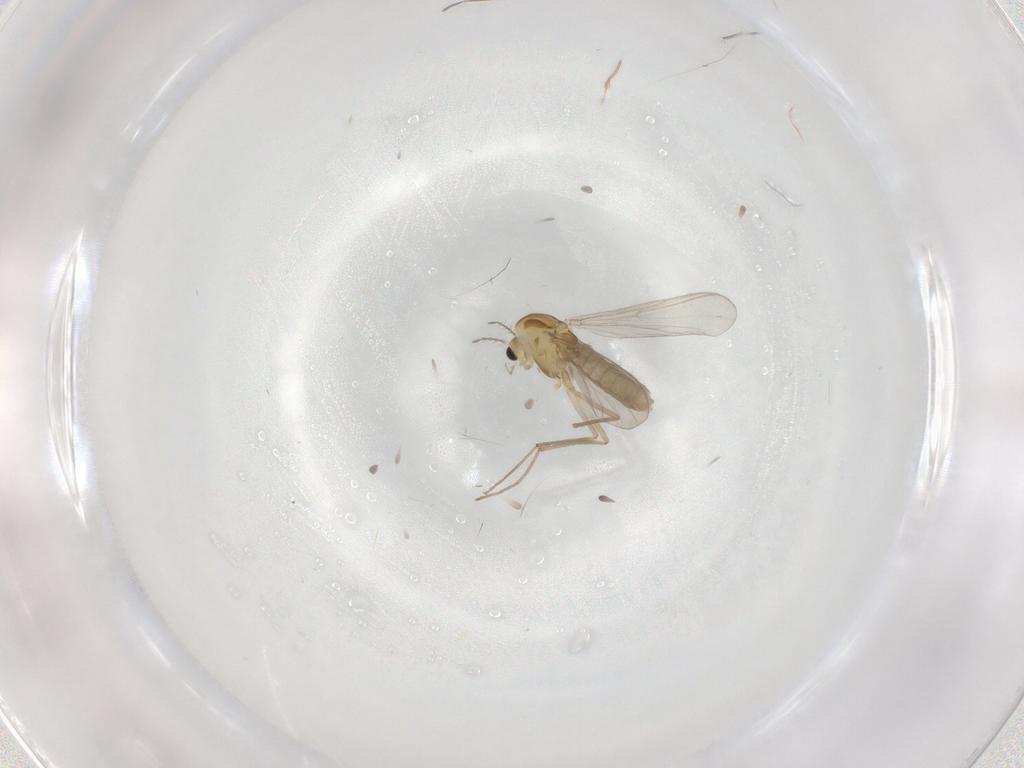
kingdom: Animalia
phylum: Arthropoda
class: Insecta
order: Diptera
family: Chironomidae
